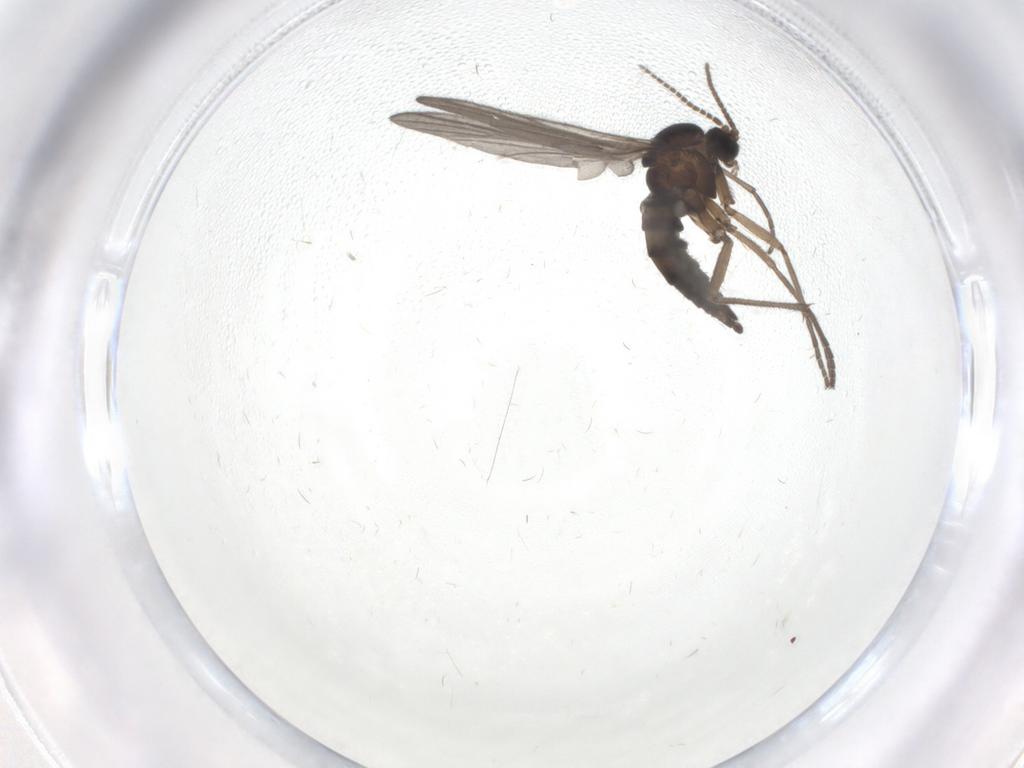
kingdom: Animalia
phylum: Arthropoda
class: Insecta
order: Diptera
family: Sciaridae
